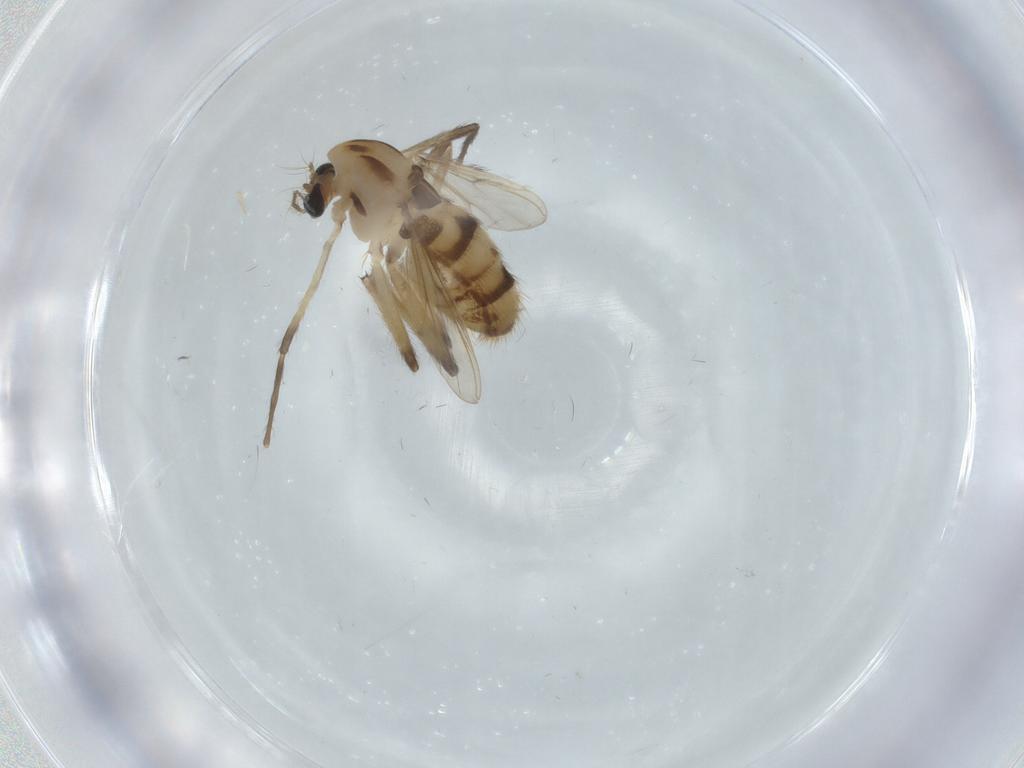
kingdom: Animalia
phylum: Arthropoda
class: Insecta
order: Diptera
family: Chironomidae
